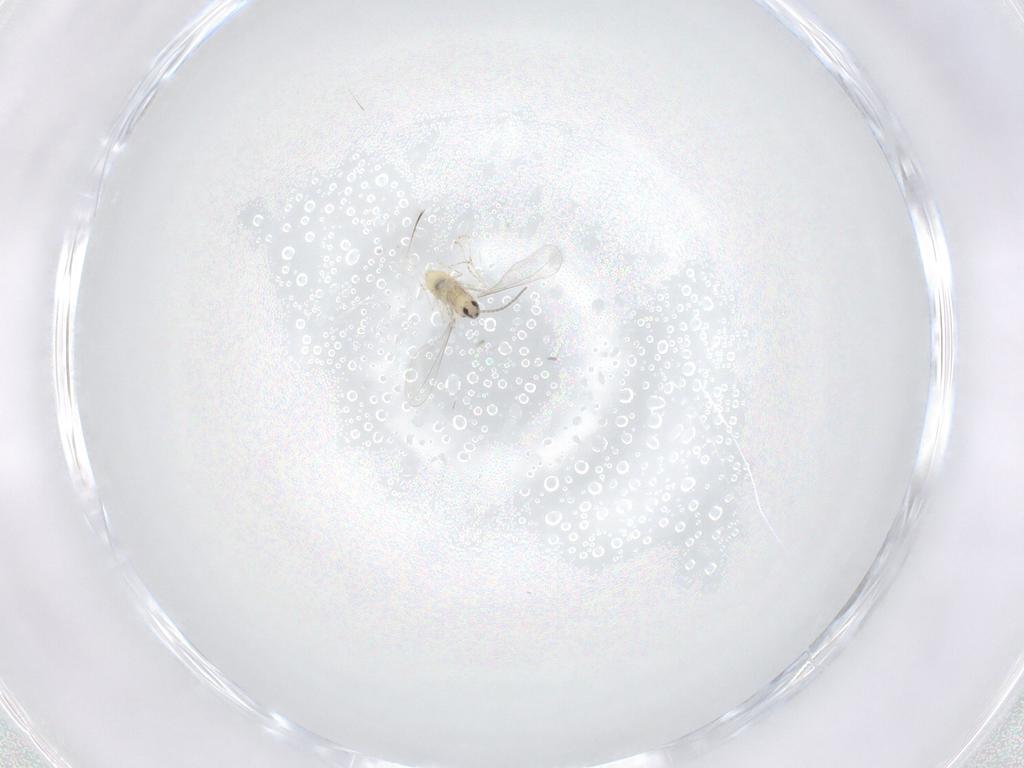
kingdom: Animalia
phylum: Arthropoda
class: Insecta
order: Diptera
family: Cecidomyiidae
